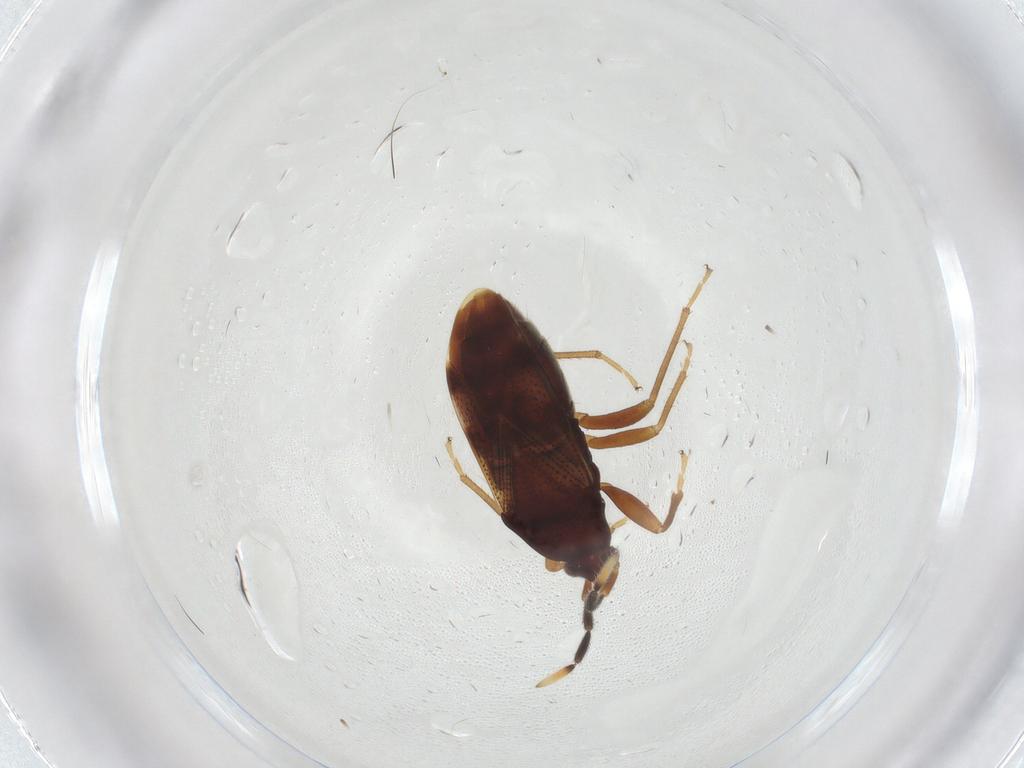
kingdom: Animalia
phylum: Arthropoda
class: Insecta
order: Hemiptera
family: Rhyparochromidae
